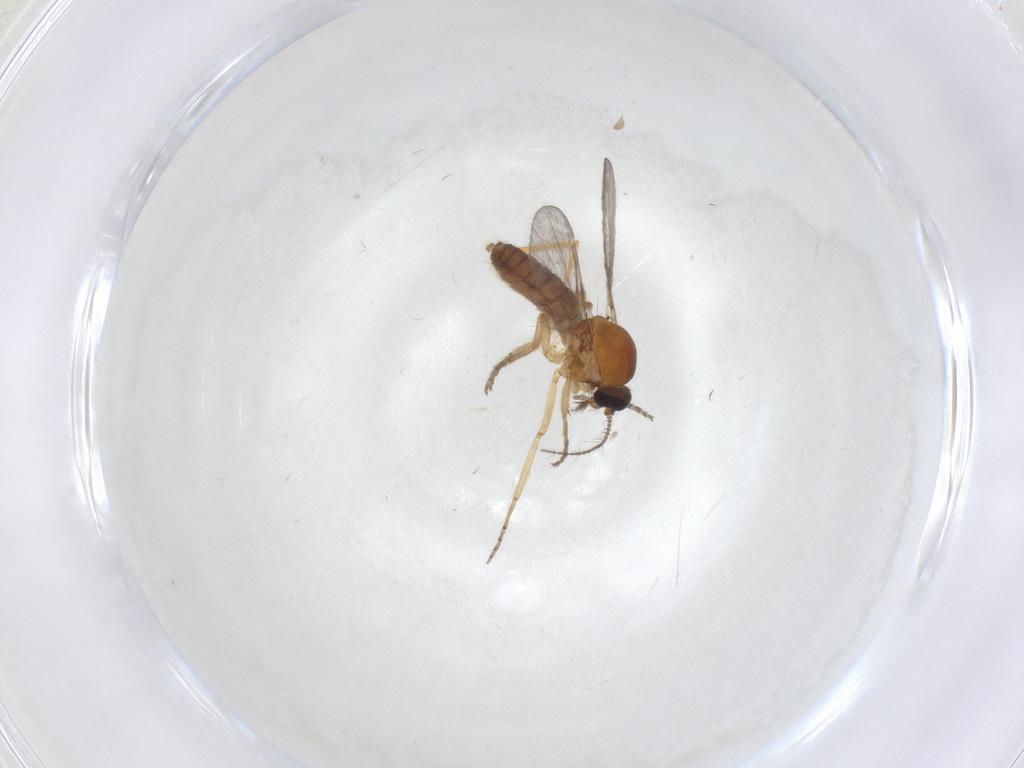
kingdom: Animalia
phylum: Arthropoda
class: Insecta
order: Diptera
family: Ceratopogonidae
